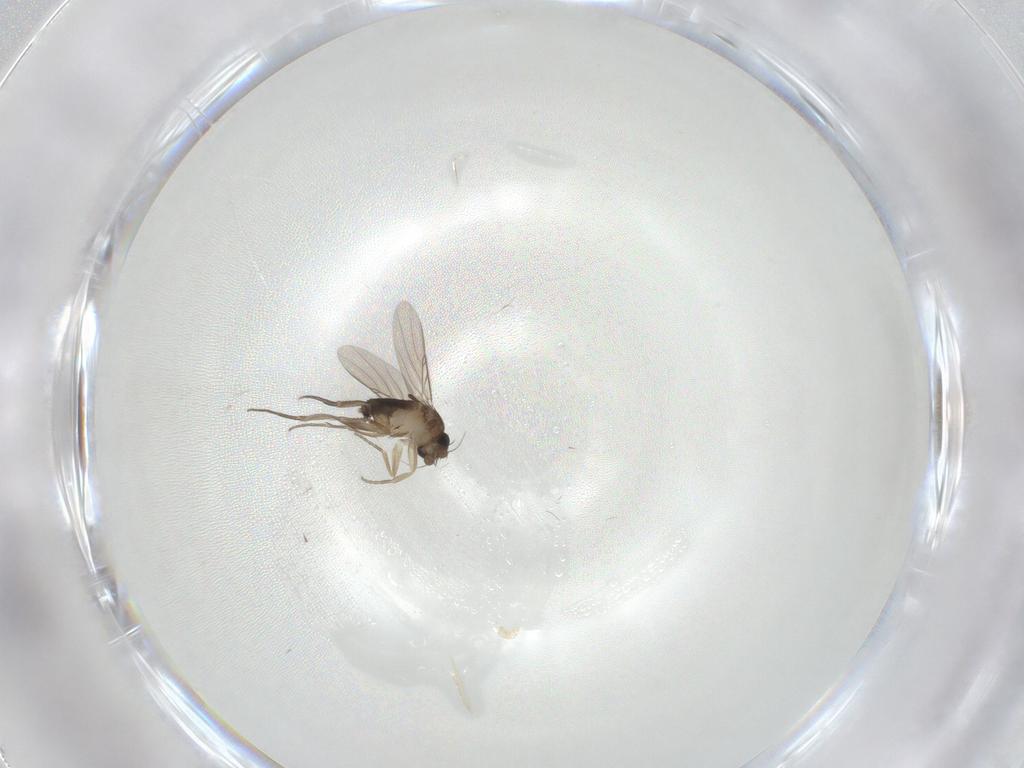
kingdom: Animalia
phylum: Arthropoda
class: Insecta
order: Diptera
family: Phoridae
